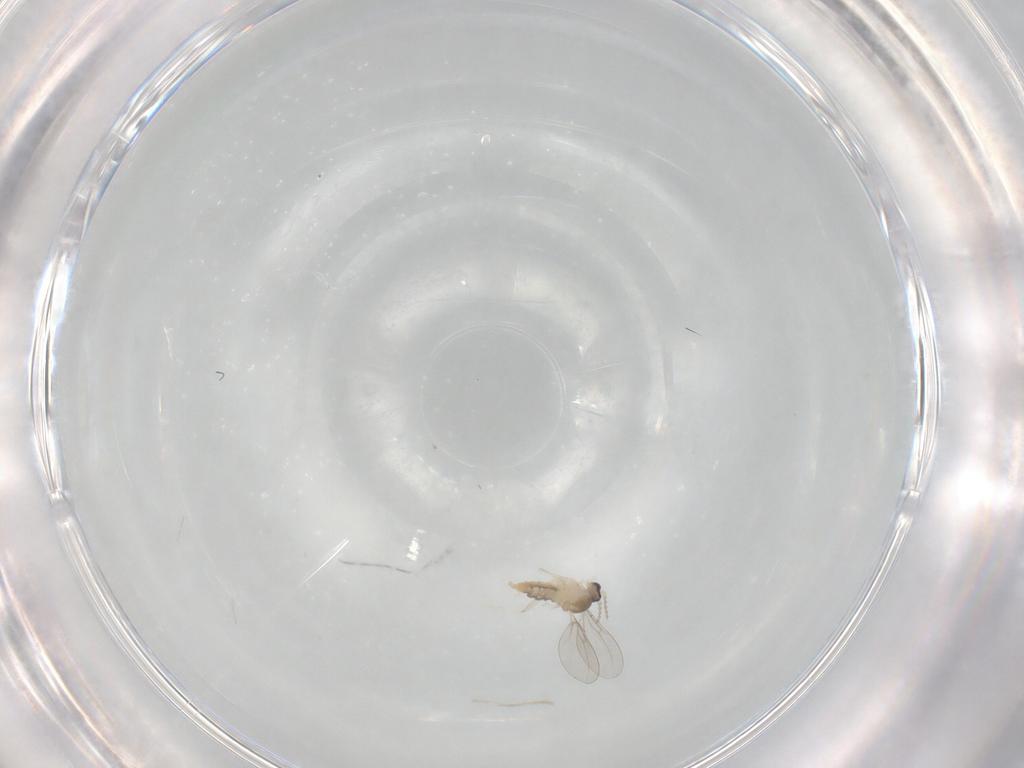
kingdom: Animalia
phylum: Arthropoda
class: Insecta
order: Diptera
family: Cecidomyiidae
